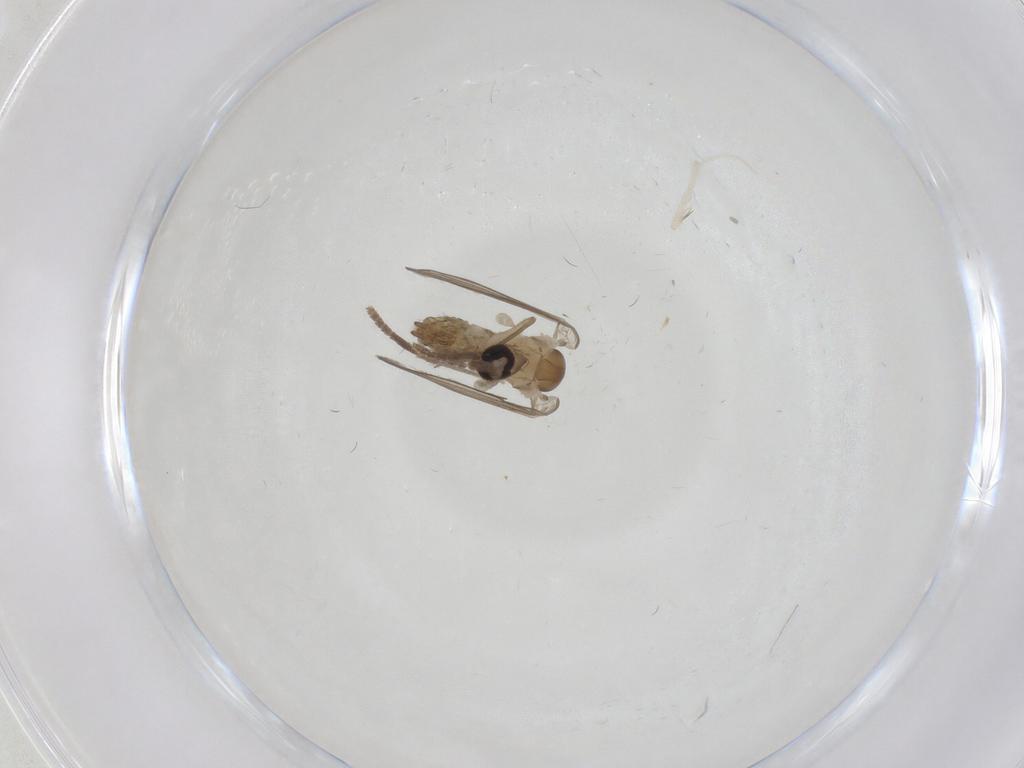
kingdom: Animalia
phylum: Arthropoda
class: Insecta
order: Diptera
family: Psychodidae
